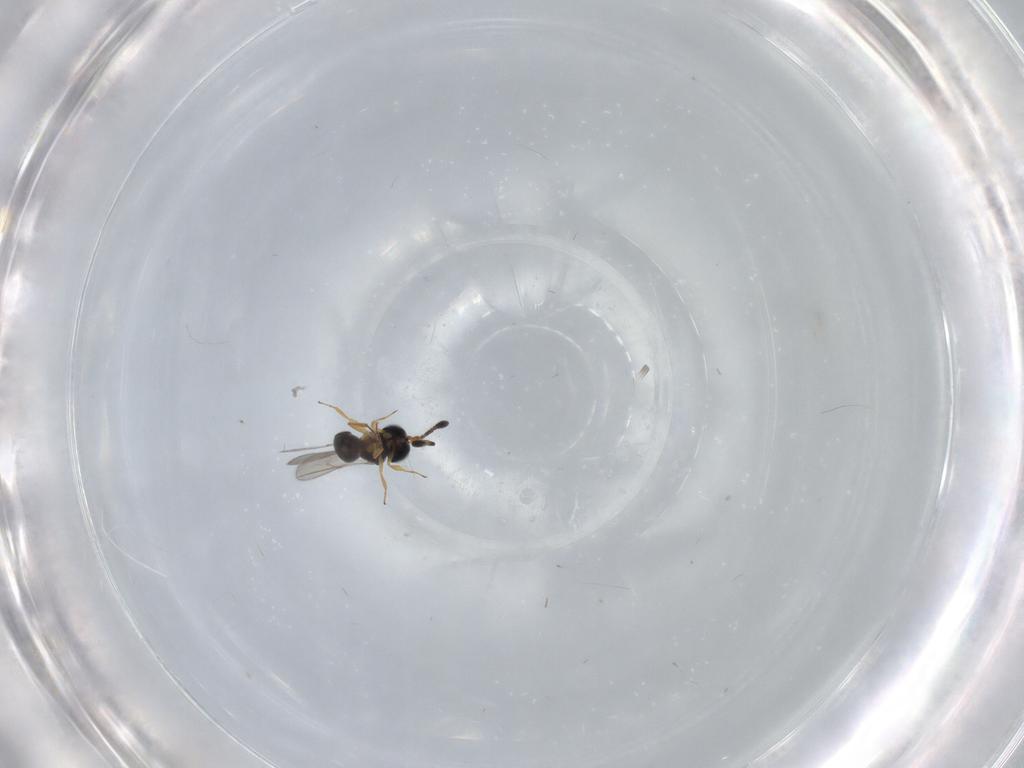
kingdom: Animalia
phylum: Arthropoda
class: Insecta
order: Hymenoptera
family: Scelionidae
